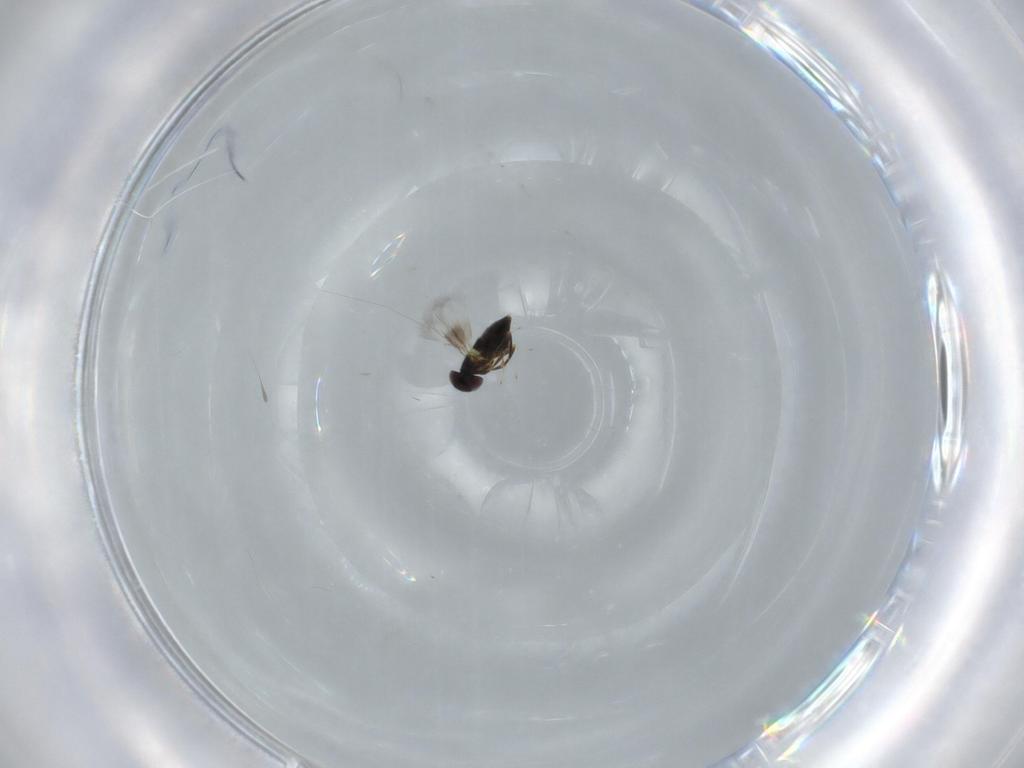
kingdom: Animalia
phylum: Arthropoda
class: Insecta
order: Hymenoptera
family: Signiphoridae
